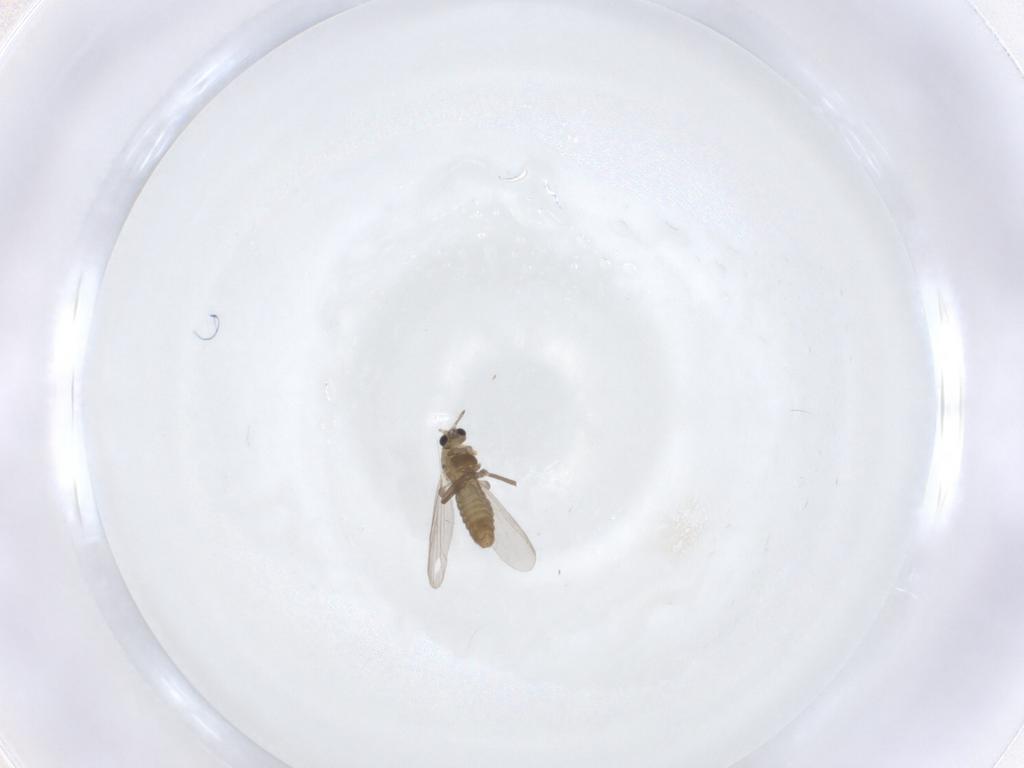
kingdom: Animalia
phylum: Arthropoda
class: Insecta
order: Diptera
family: Chironomidae
